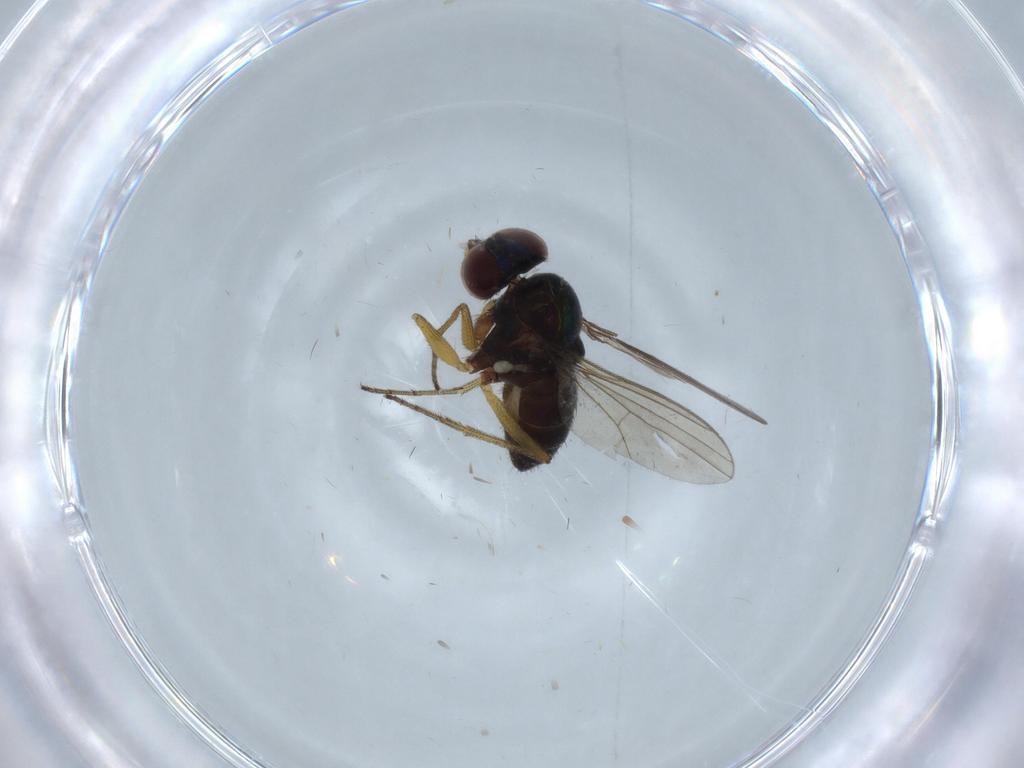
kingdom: Animalia
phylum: Arthropoda
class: Insecta
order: Diptera
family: Dolichopodidae
